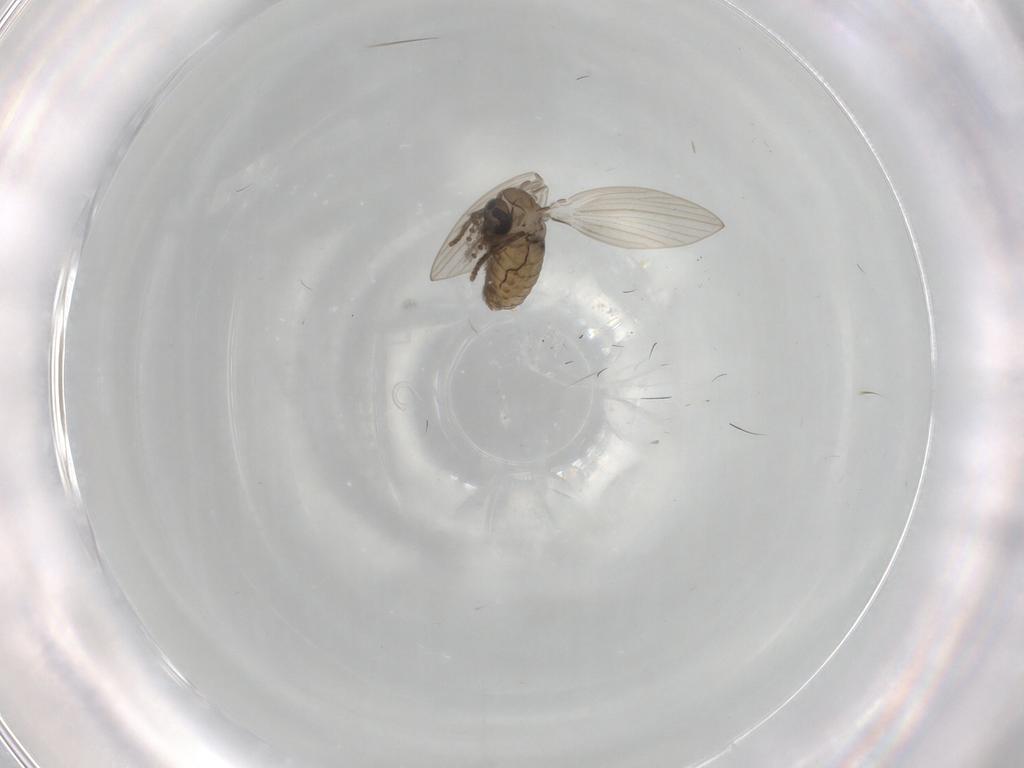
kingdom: Animalia
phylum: Arthropoda
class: Insecta
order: Diptera
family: Psychodidae
